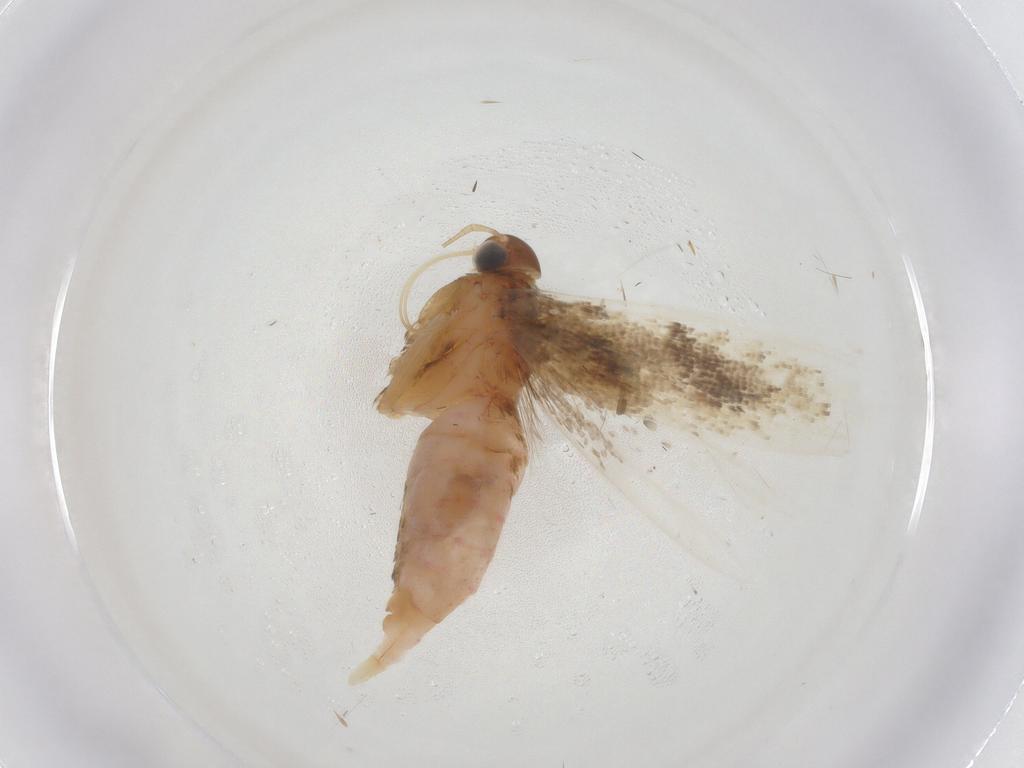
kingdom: Animalia
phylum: Arthropoda
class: Insecta
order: Lepidoptera
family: Gelechiidae
